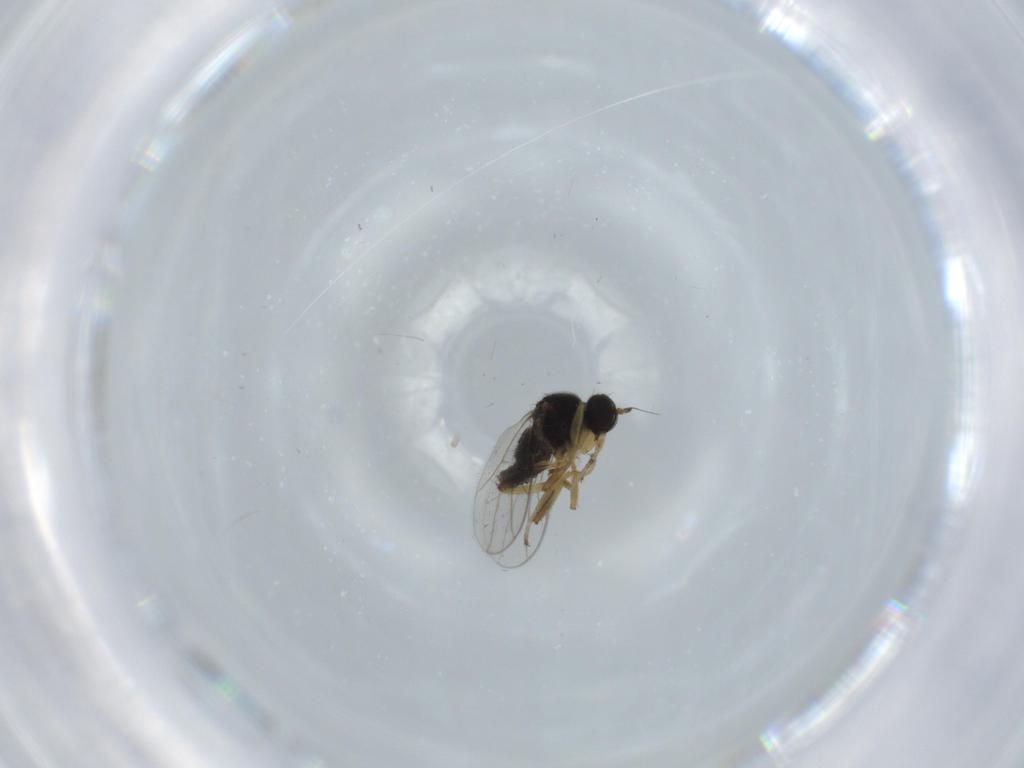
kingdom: Animalia
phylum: Arthropoda
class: Insecta
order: Diptera
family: Hybotidae
